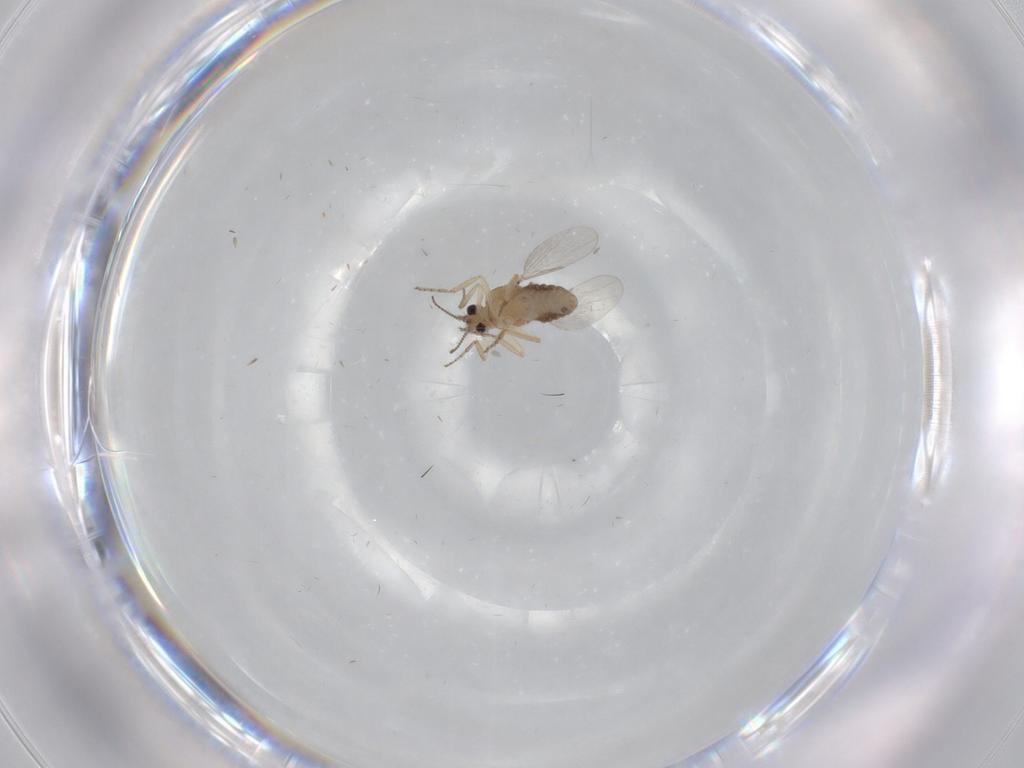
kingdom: Animalia
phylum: Arthropoda
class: Insecta
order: Diptera
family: Ceratopogonidae
